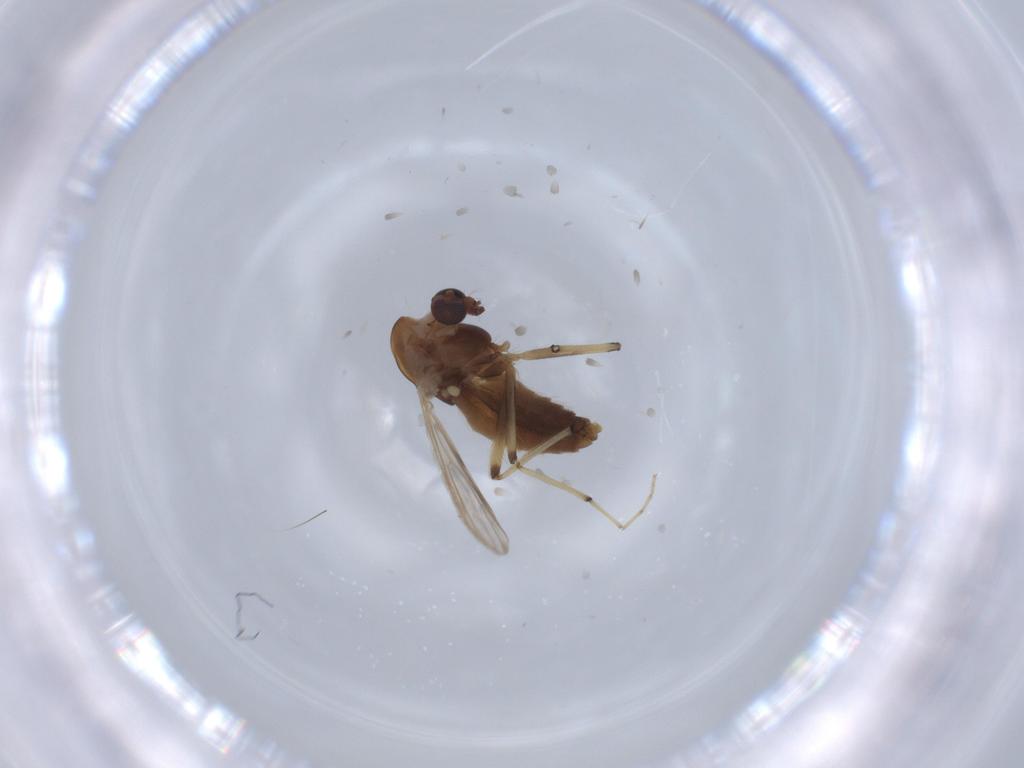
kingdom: Animalia
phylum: Arthropoda
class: Insecta
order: Diptera
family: Chironomidae
